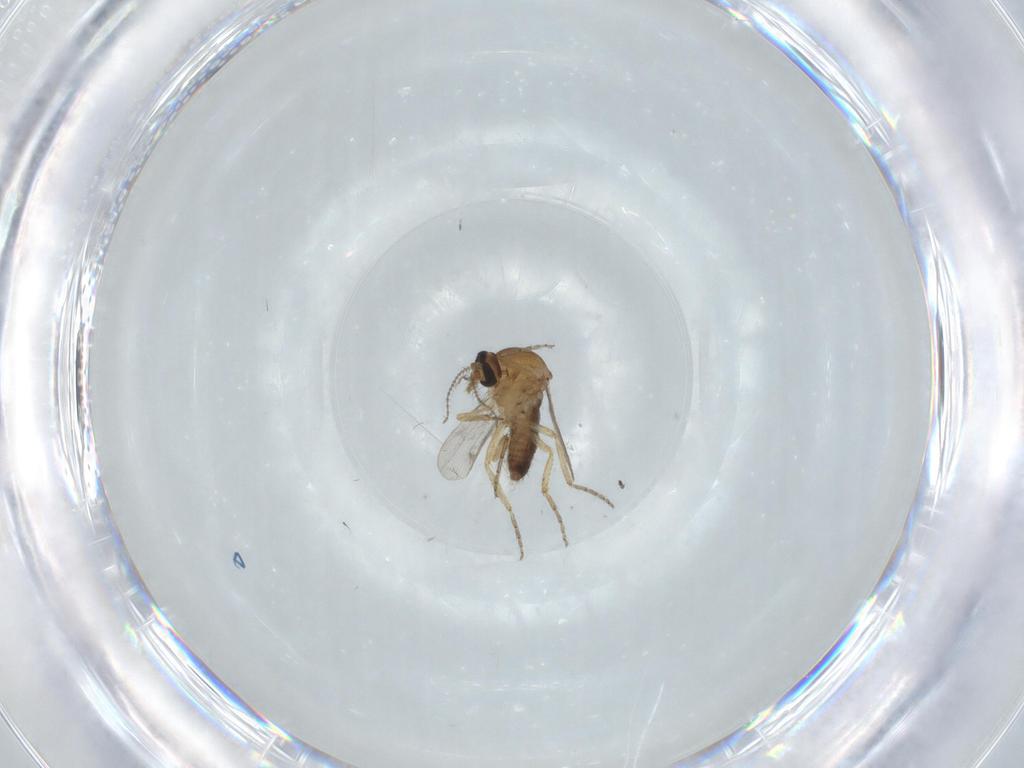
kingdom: Animalia
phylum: Arthropoda
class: Insecta
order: Diptera
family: Ceratopogonidae
